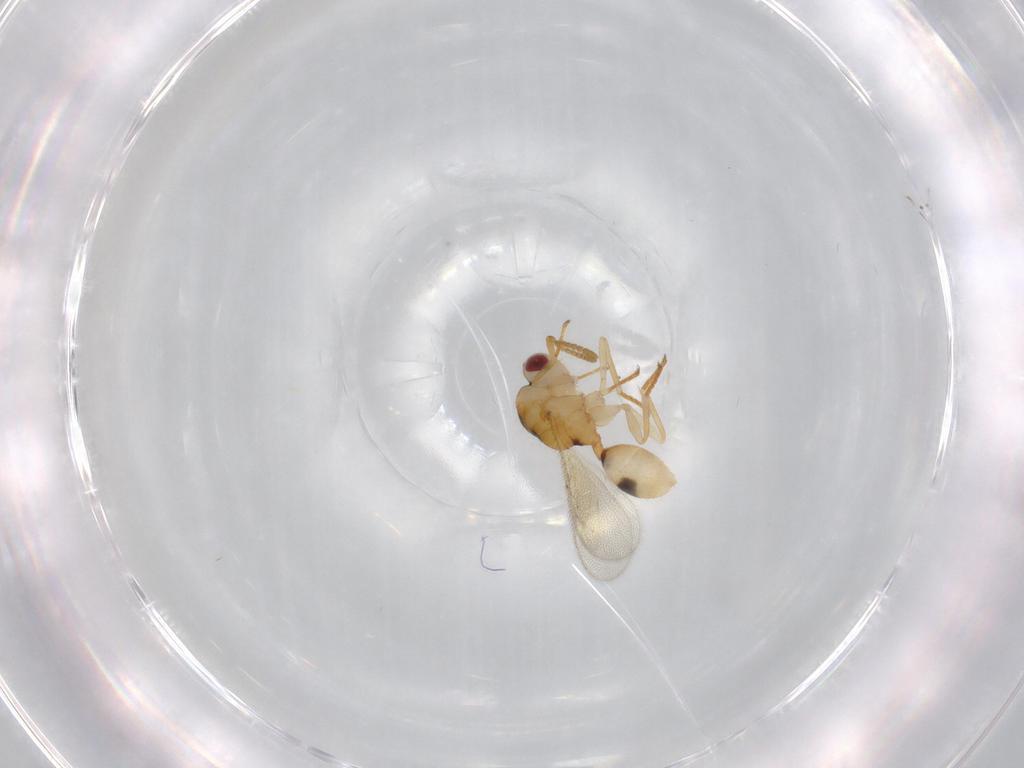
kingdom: Animalia
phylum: Arthropoda
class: Insecta
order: Hymenoptera
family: Eurytomidae
